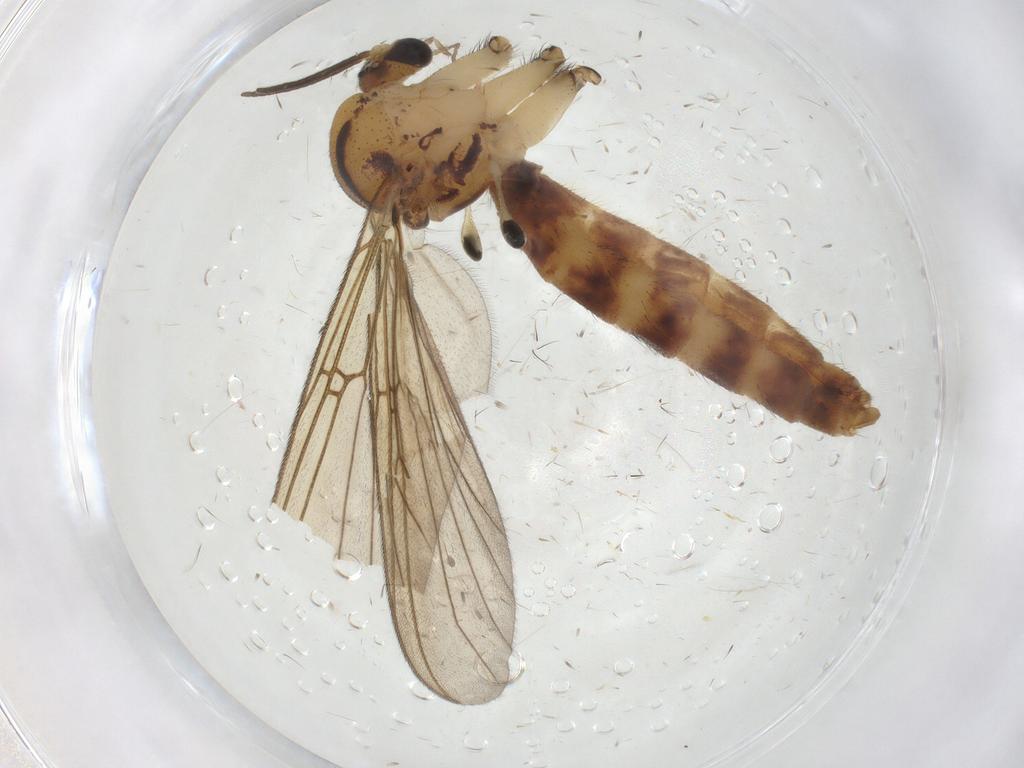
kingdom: Animalia
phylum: Arthropoda
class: Insecta
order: Diptera
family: Mycetophilidae
